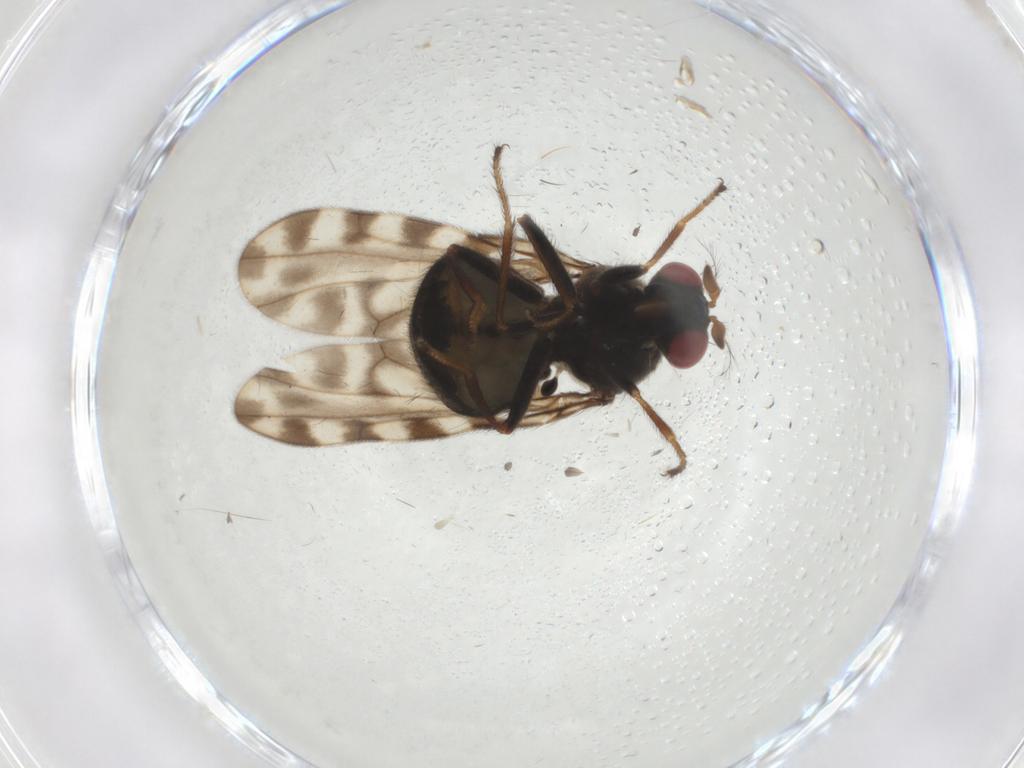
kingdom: Animalia
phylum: Arthropoda
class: Insecta
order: Diptera
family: Ephydridae
